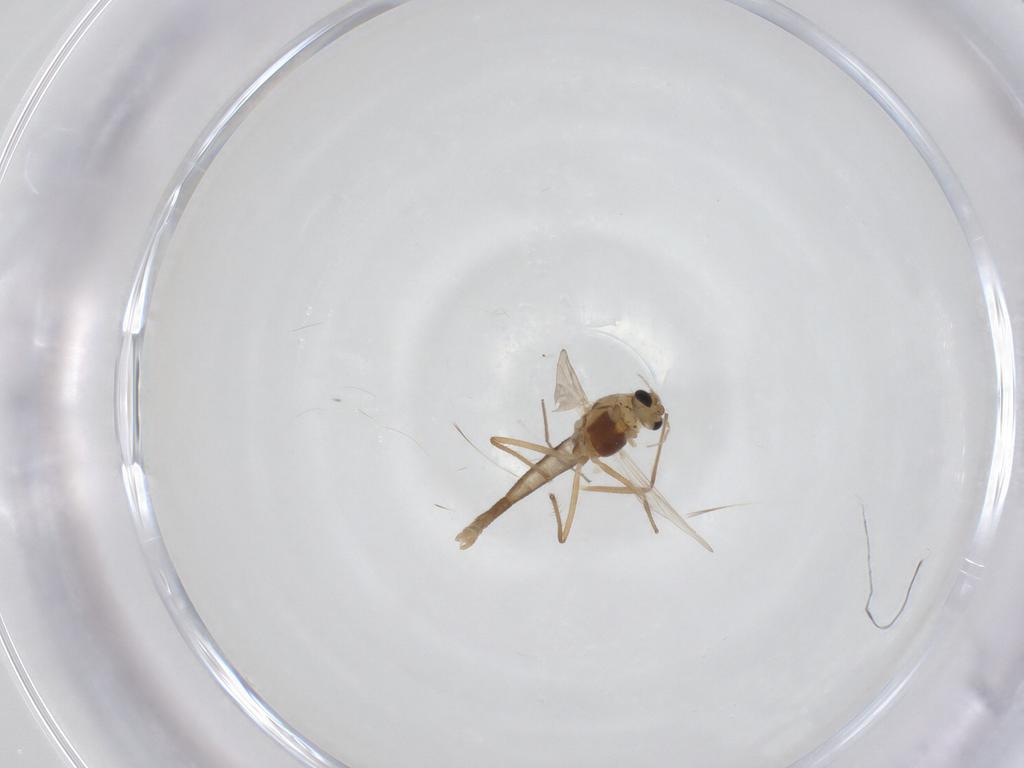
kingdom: Animalia
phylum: Arthropoda
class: Insecta
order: Diptera
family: Chironomidae
